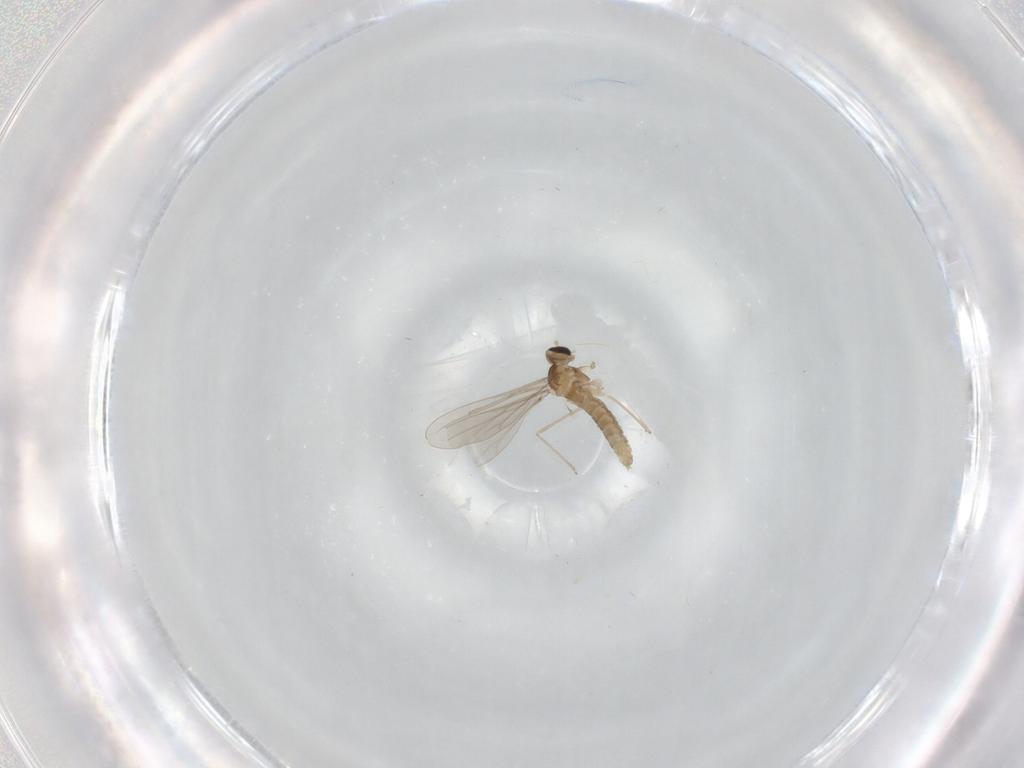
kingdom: Animalia
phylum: Arthropoda
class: Insecta
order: Diptera
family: Cecidomyiidae
